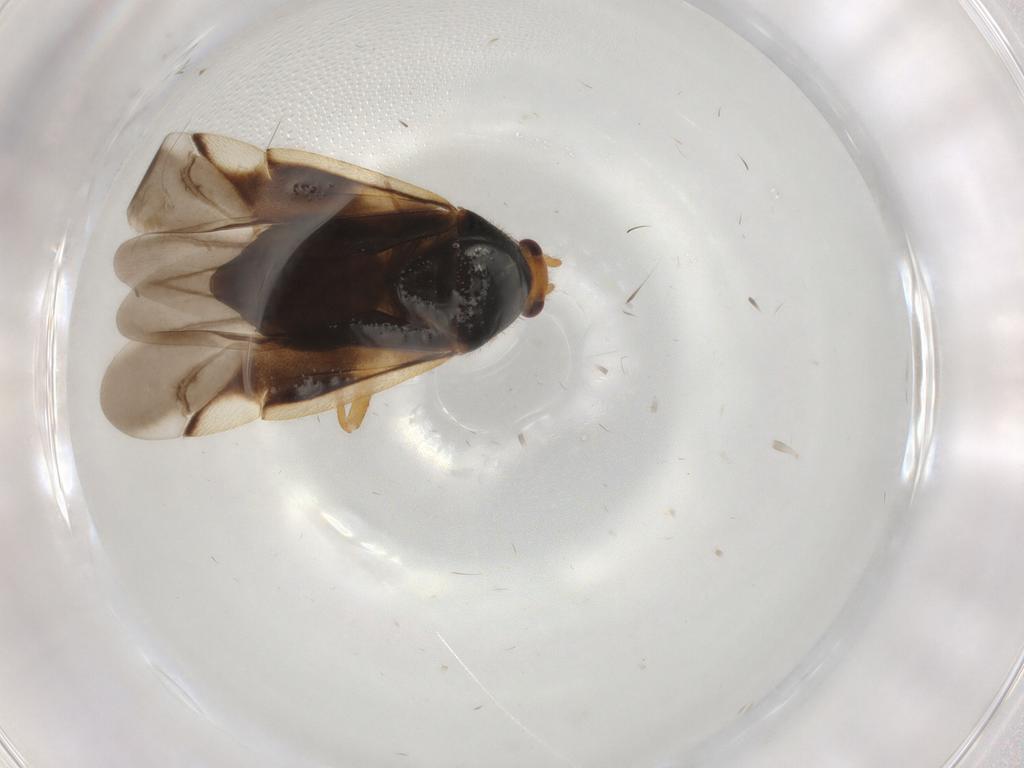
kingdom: Animalia
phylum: Arthropoda
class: Insecta
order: Hemiptera
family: Miridae
